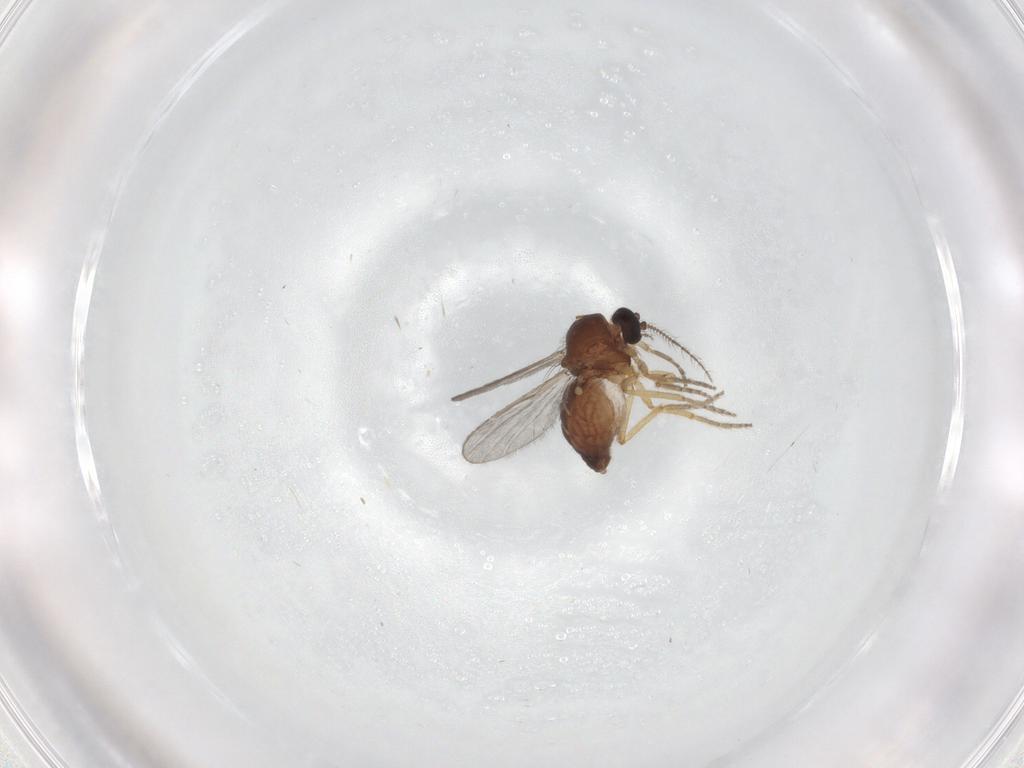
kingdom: Animalia
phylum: Arthropoda
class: Insecta
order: Diptera
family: Ceratopogonidae
